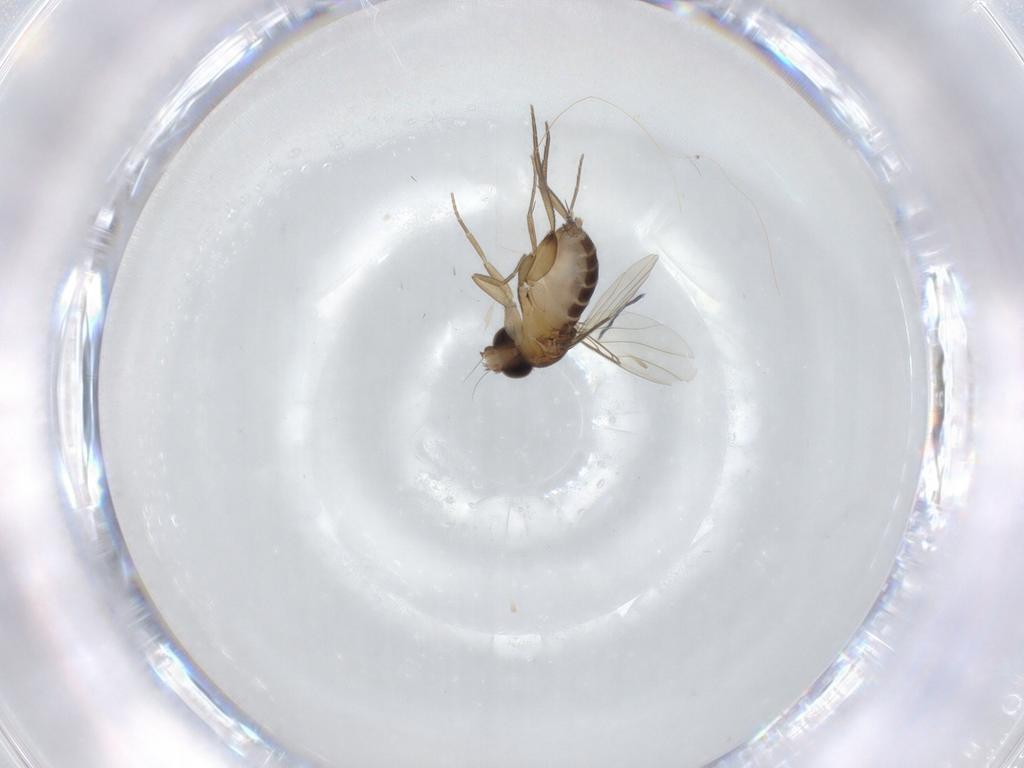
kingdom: Animalia
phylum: Arthropoda
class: Insecta
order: Diptera
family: Phoridae
